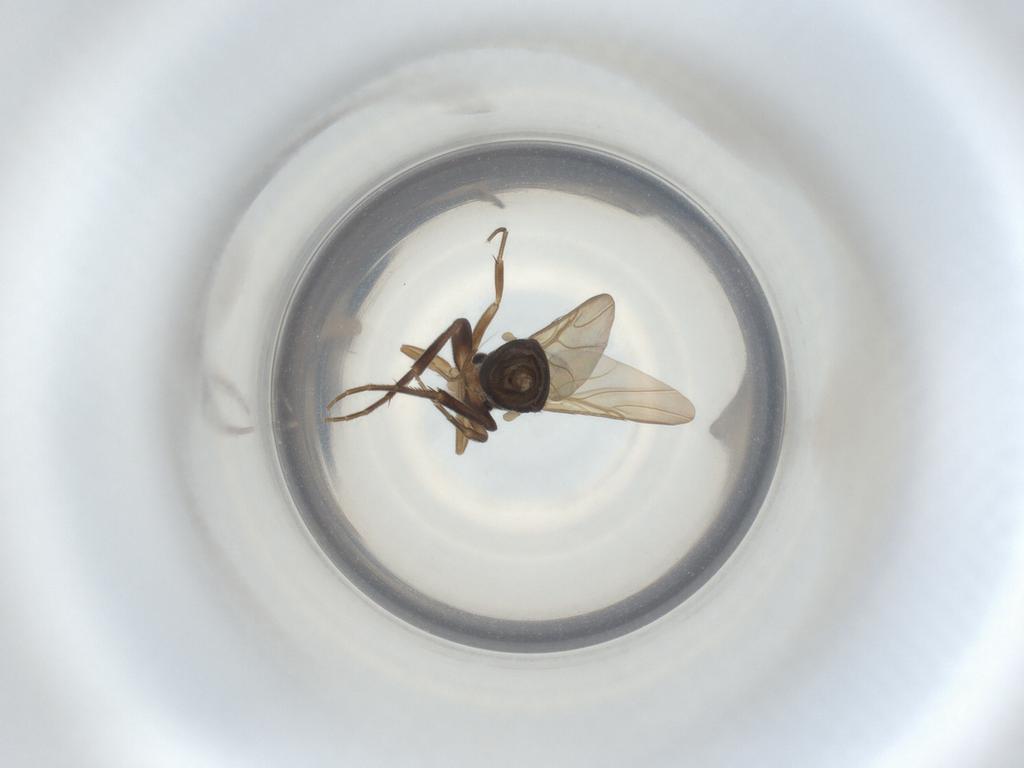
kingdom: Animalia
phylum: Arthropoda
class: Insecta
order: Diptera
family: Phoridae
